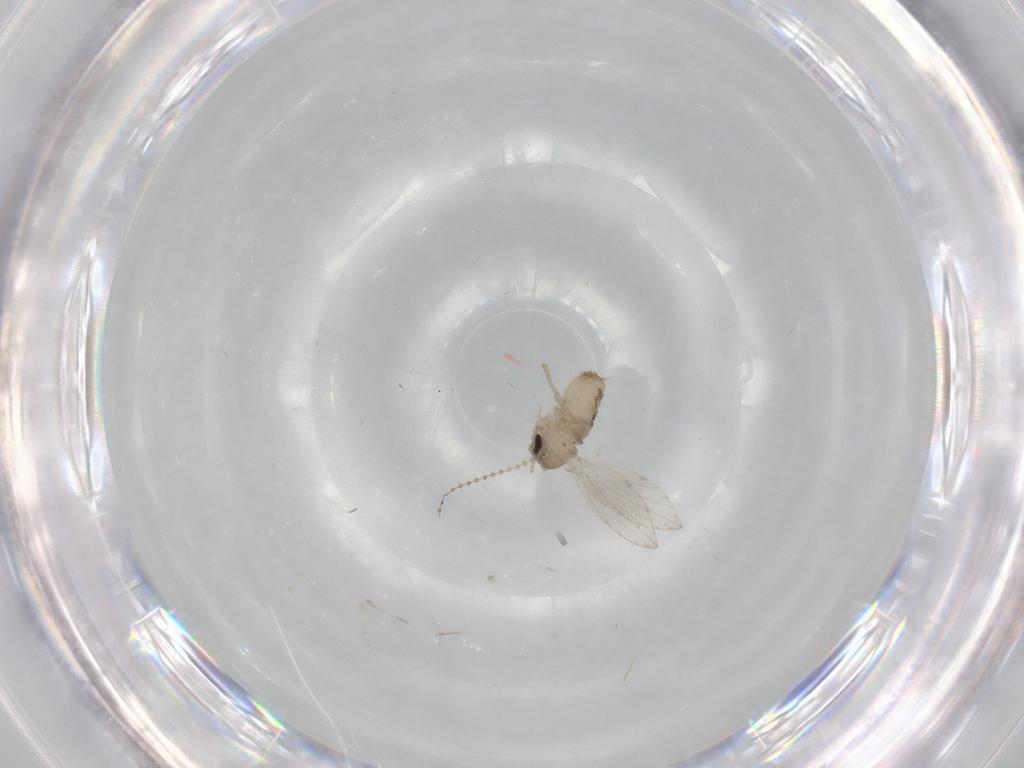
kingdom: Animalia
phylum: Arthropoda
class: Insecta
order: Diptera
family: Psychodidae
